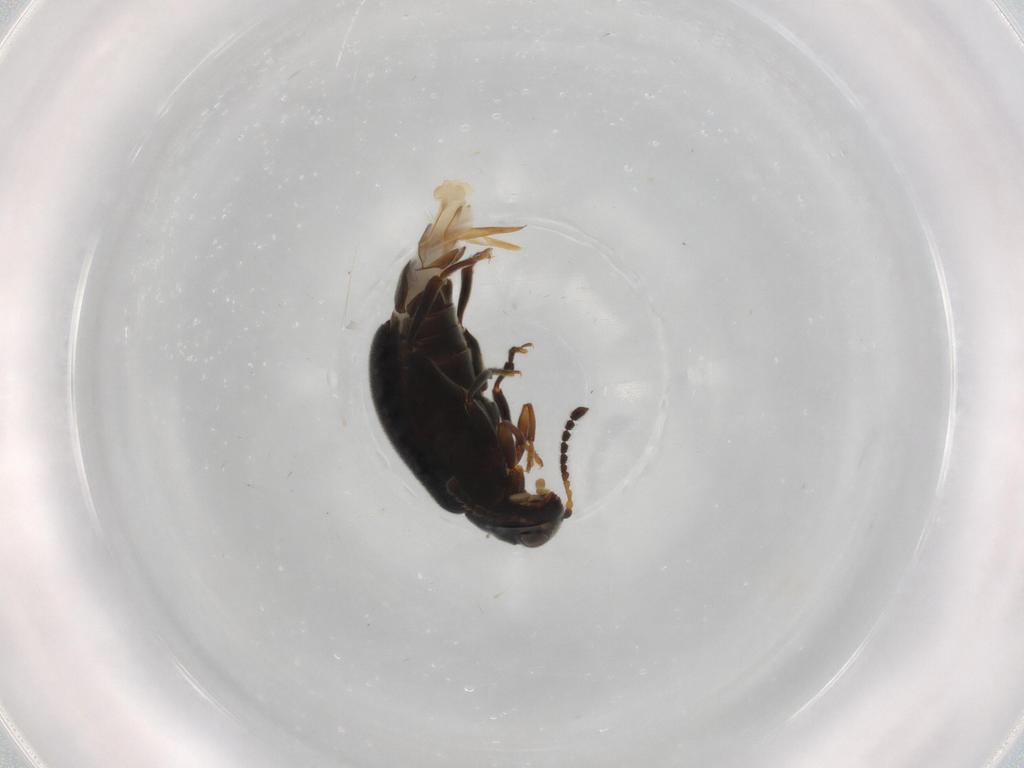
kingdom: Animalia
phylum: Arthropoda
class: Insecta
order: Coleoptera
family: Aderidae
